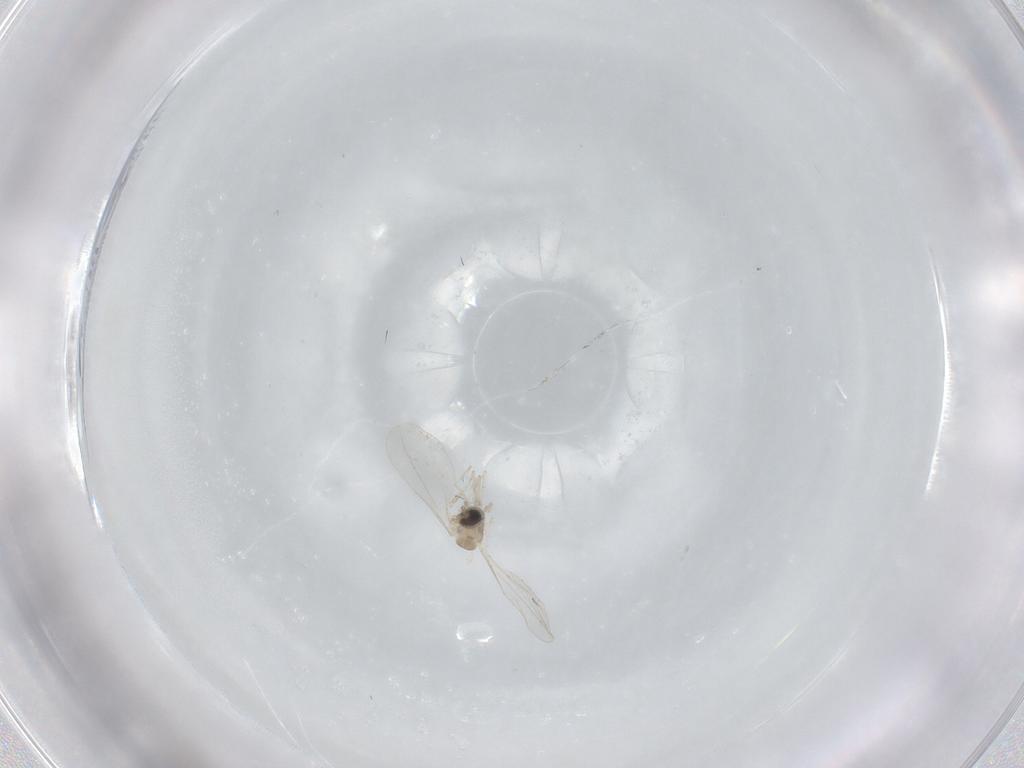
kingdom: Animalia
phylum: Arthropoda
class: Insecta
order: Diptera
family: Cecidomyiidae
